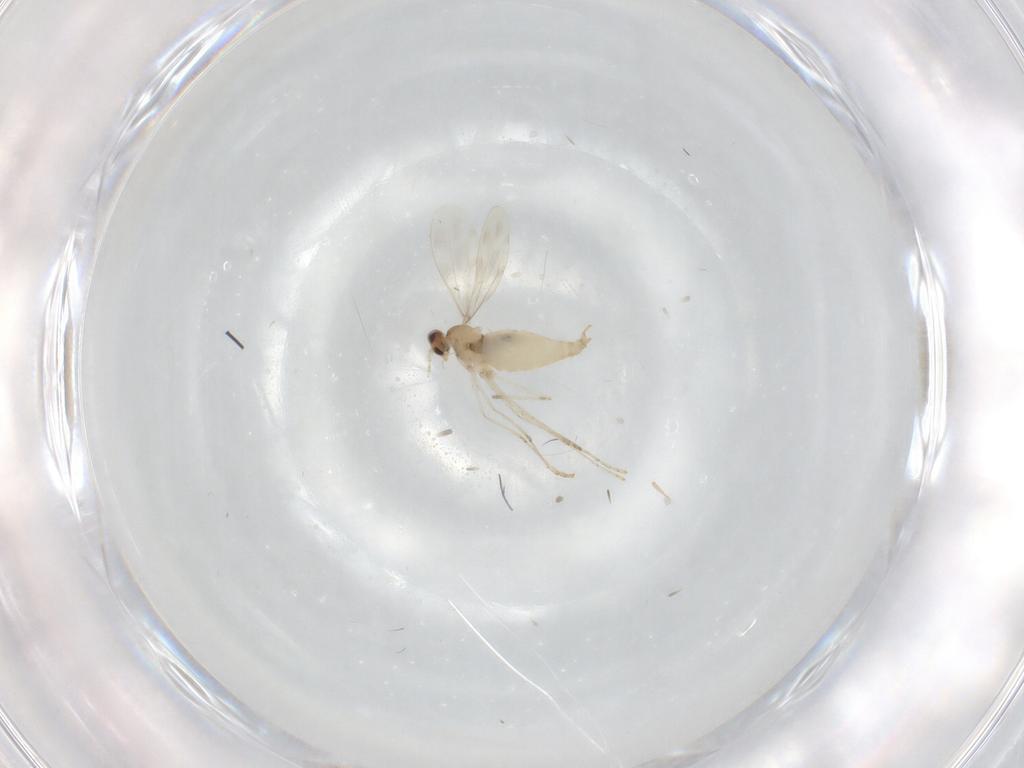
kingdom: Animalia
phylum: Arthropoda
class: Insecta
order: Diptera
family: Cecidomyiidae
